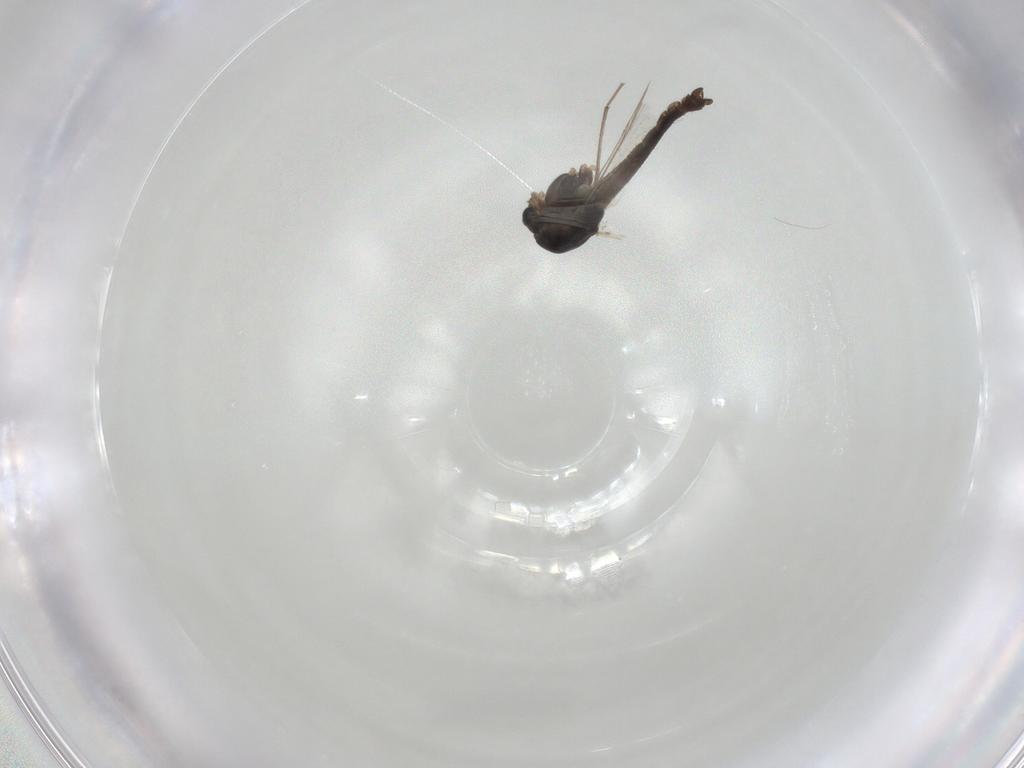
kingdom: Animalia
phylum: Arthropoda
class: Insecta
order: Diptera
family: Chironomidae
